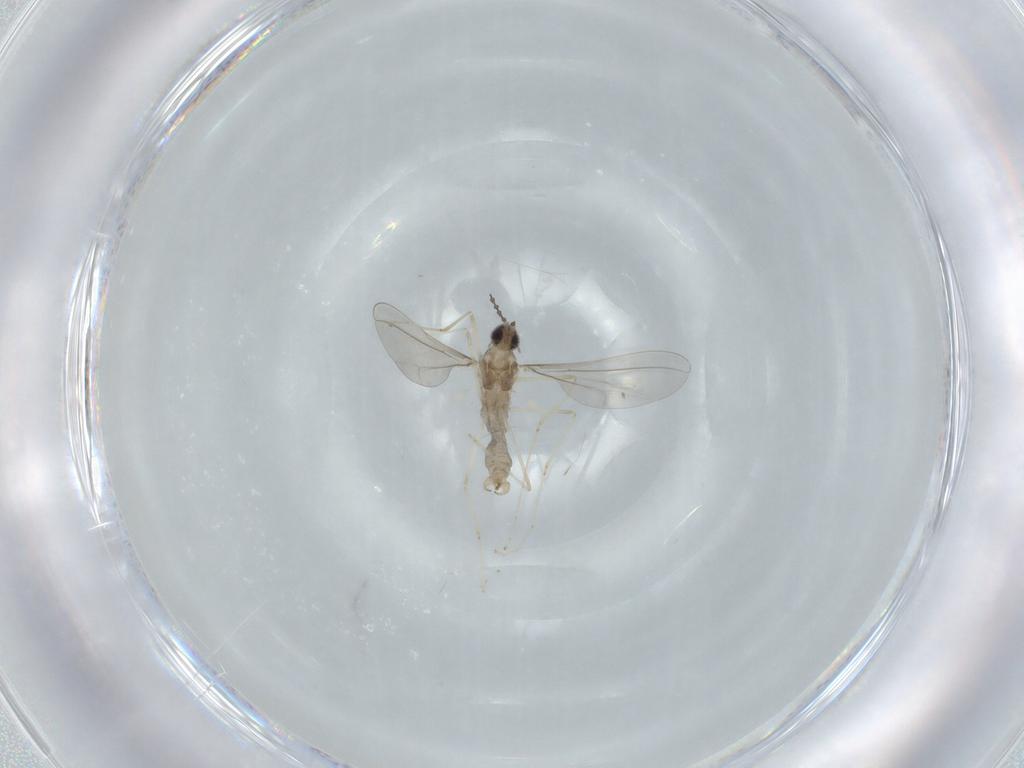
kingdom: Animalia
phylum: Arthropoda
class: Insecta
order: Diptera
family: Cecidomyiidae
